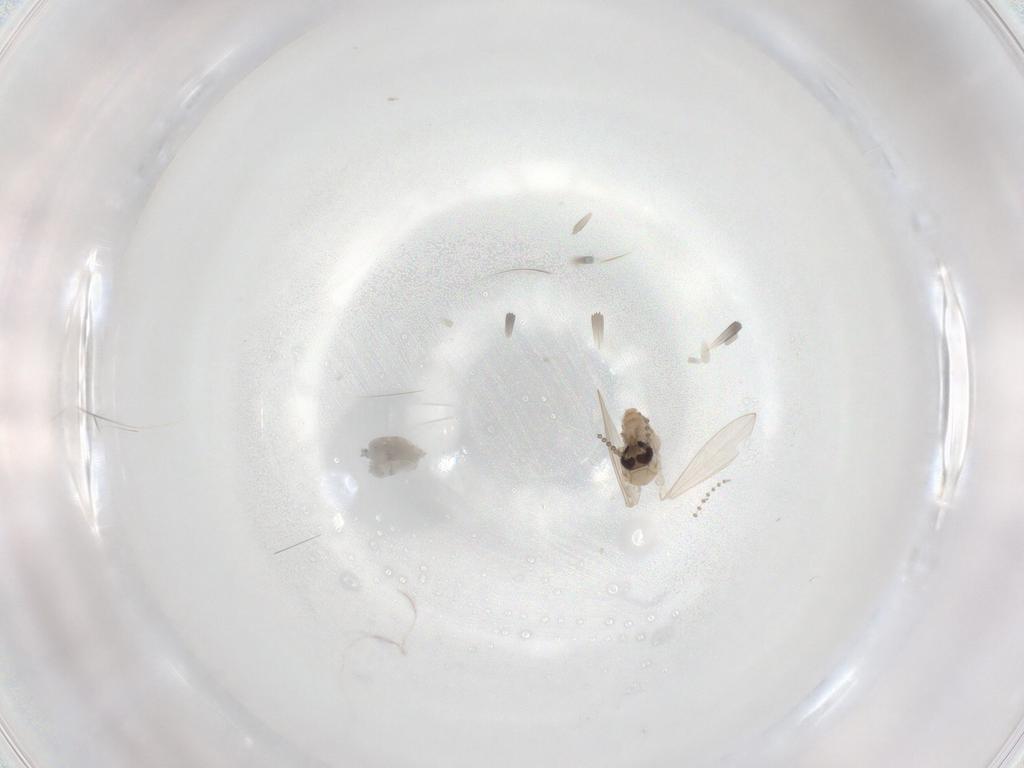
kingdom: Animalia
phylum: Arthropoda
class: Insecta
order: Diptera
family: Psychodidae
